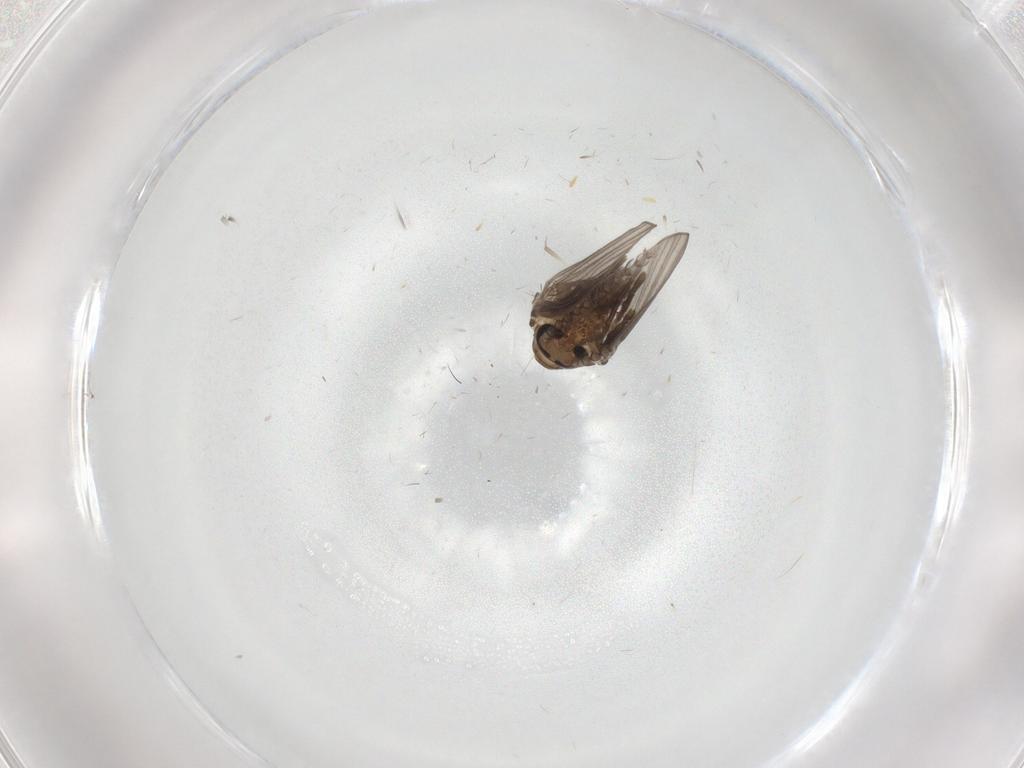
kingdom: Animalia
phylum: Arthropoda
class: Insecta
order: Diptera
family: Psychodidae
